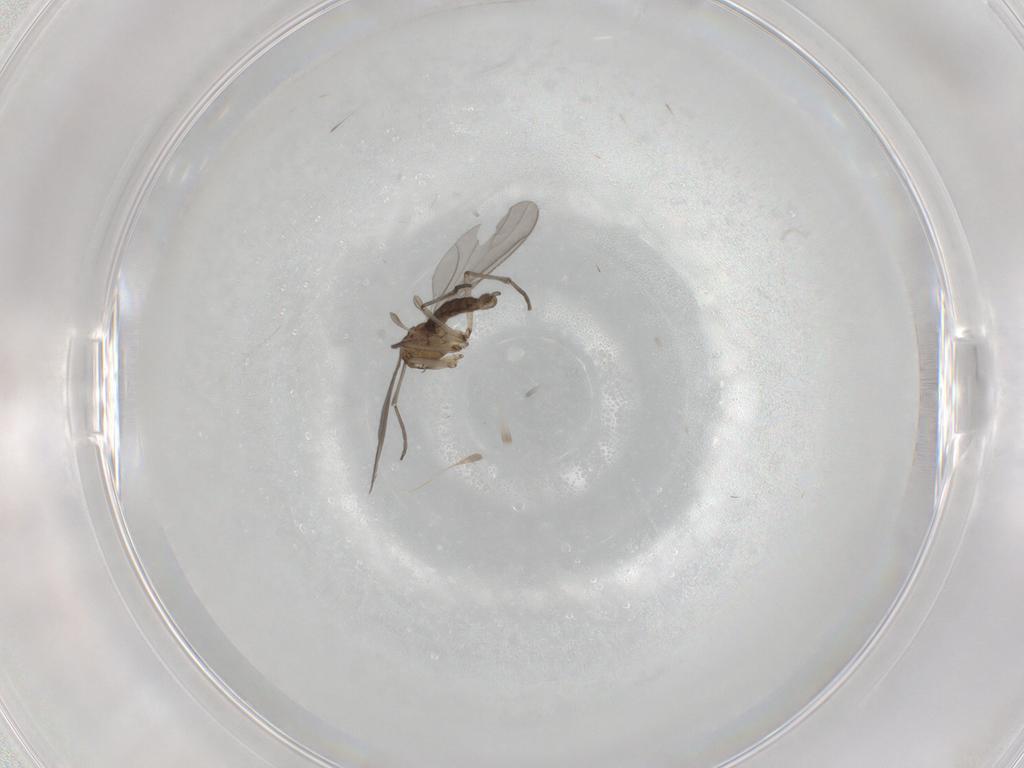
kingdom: Animalia
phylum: Arthropoda
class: Insecta
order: Diptera
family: Sciaridae
